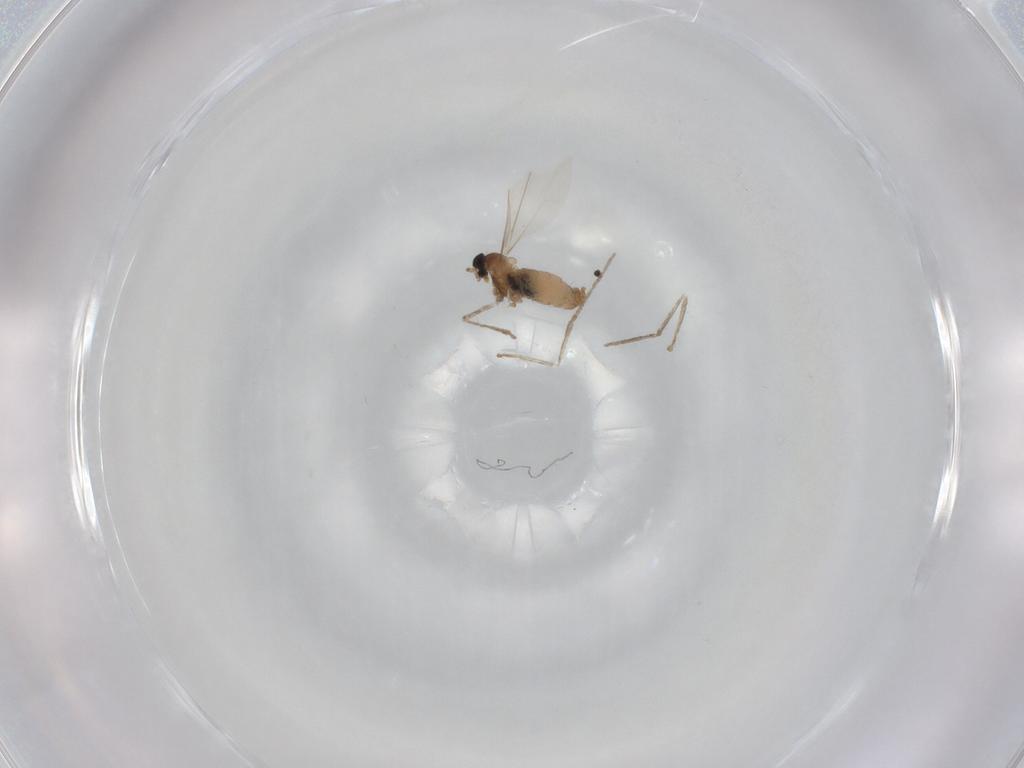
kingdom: Animalia
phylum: Arthropoda
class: Insecta
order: Diptera
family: Cecidomyiidae
